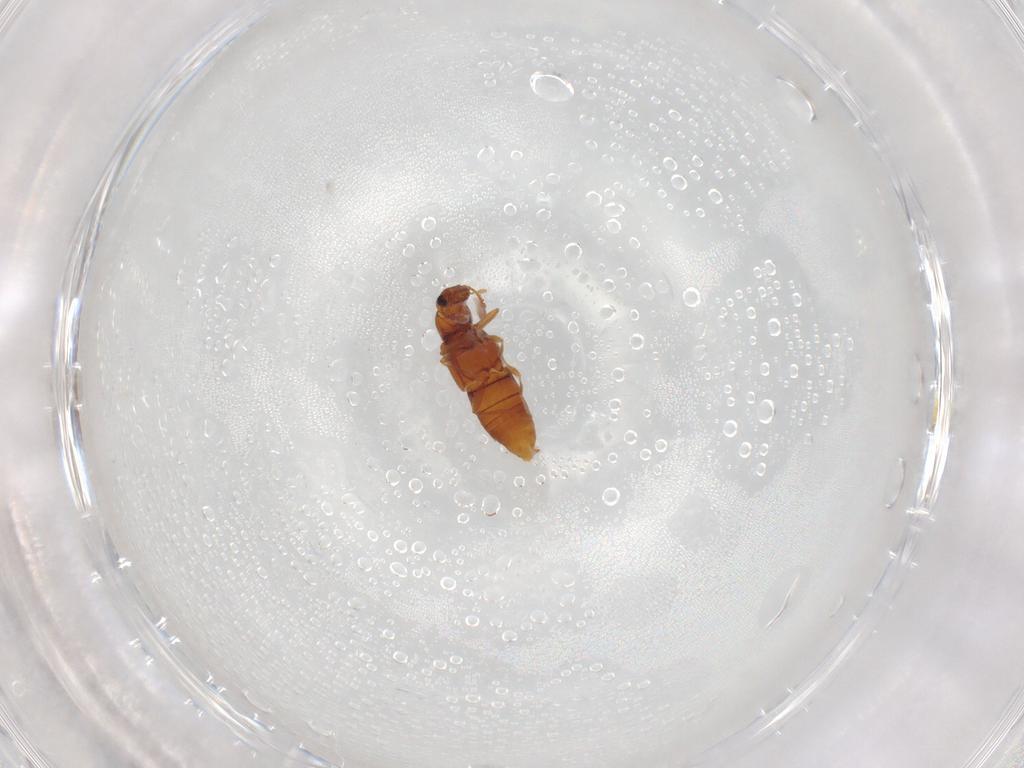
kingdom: Animalia
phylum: Arthropoda
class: Insecta
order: Coleoptera
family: Staphylinidae
